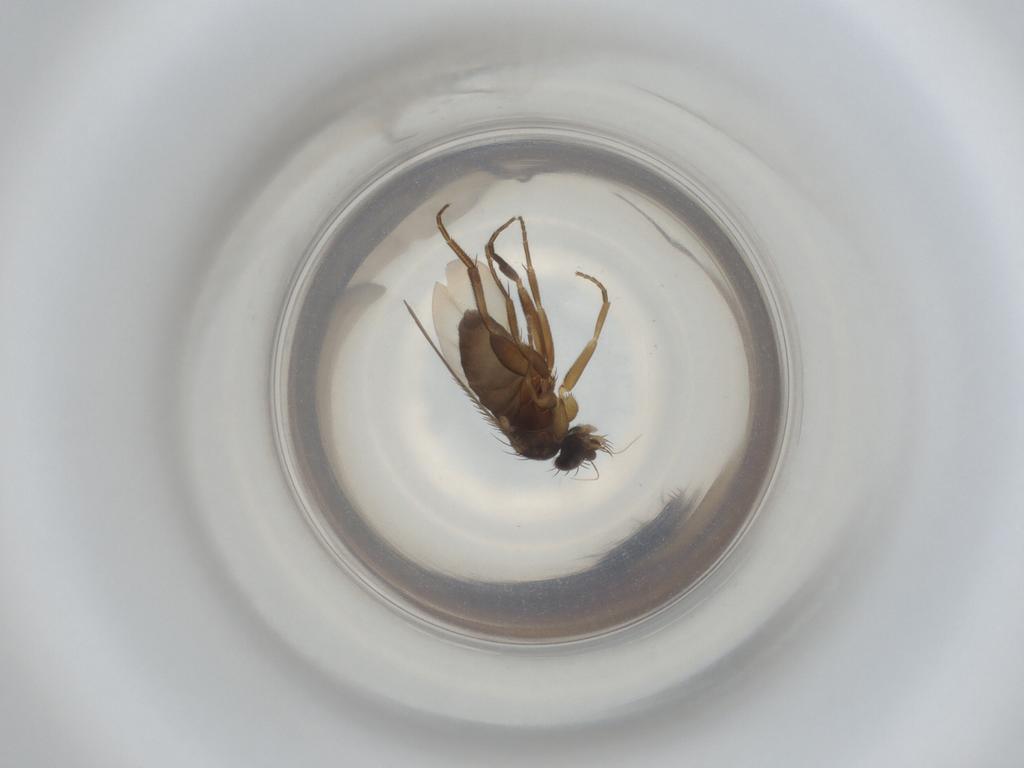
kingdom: Animalia
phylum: Arthropoda
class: Insecta
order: Diptera
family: Phoridae
